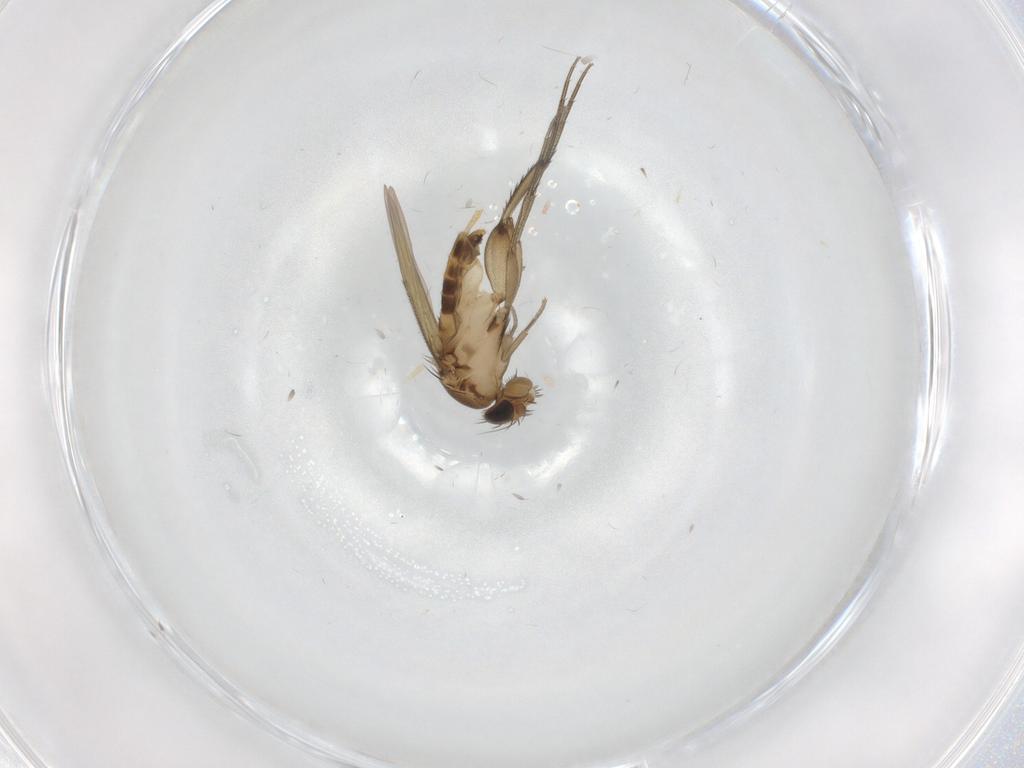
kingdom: Animalia
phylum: Arthropoda
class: Insecta
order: Diptera
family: Phoridae
